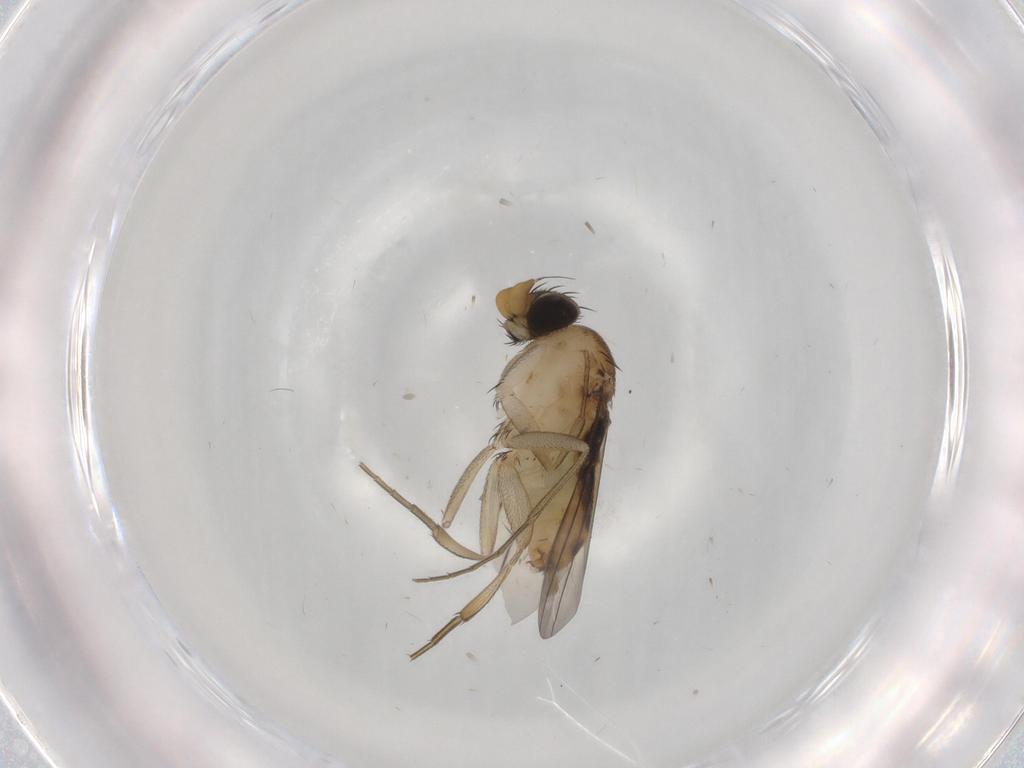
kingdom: Animalia
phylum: Arthropoda
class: Insecta
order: Diptera
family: Phoridae
